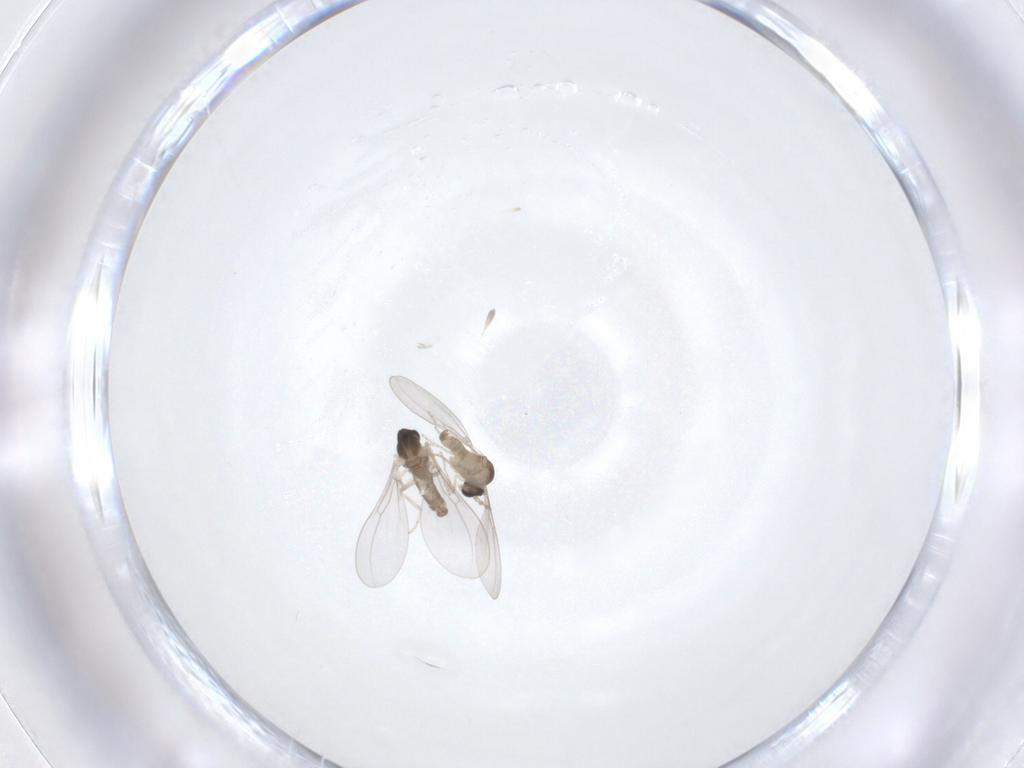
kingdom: Animalia
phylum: Arthropoda
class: Insecta
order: Diptera
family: Cecidomyiidae
